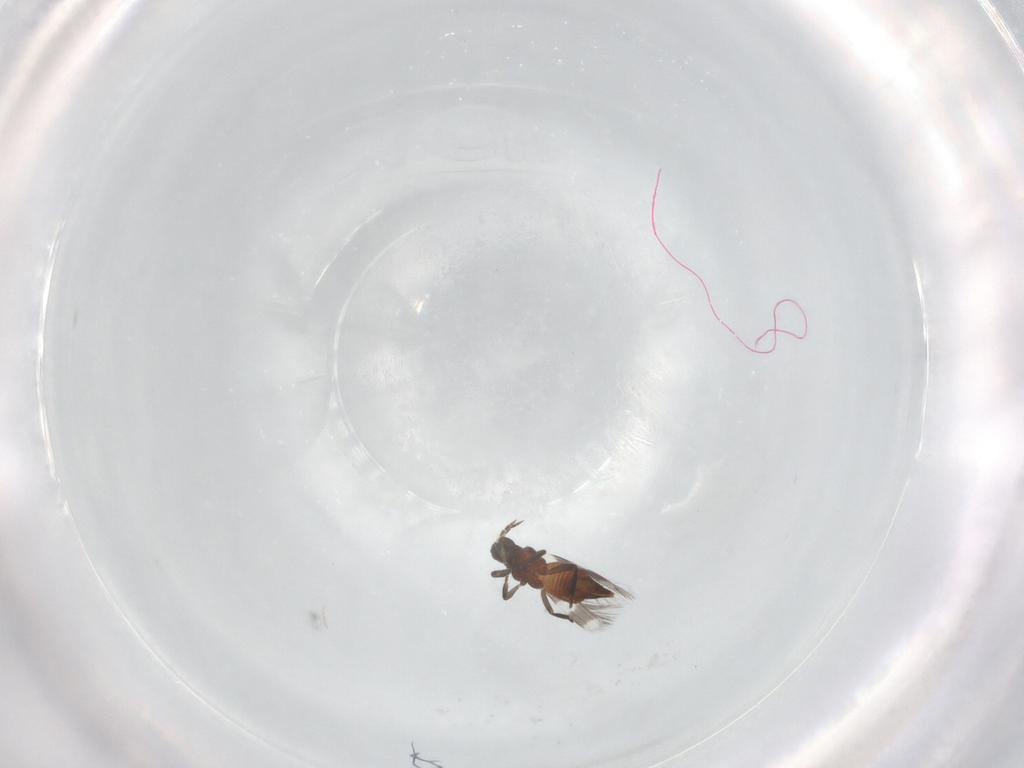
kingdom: Animalia
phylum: Arthropoda
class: Insecta
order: Thysanoptera
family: Aeolothripidae
